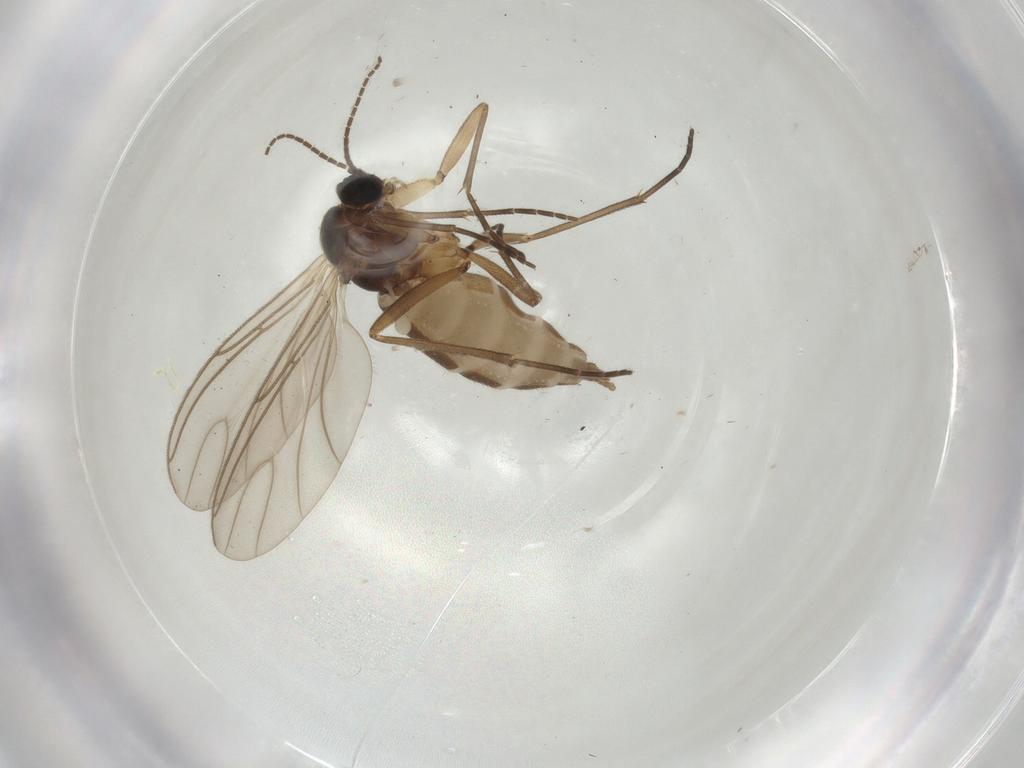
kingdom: Animalia
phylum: Arthropoda
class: Insecta
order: Diptera
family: Sciaridae
